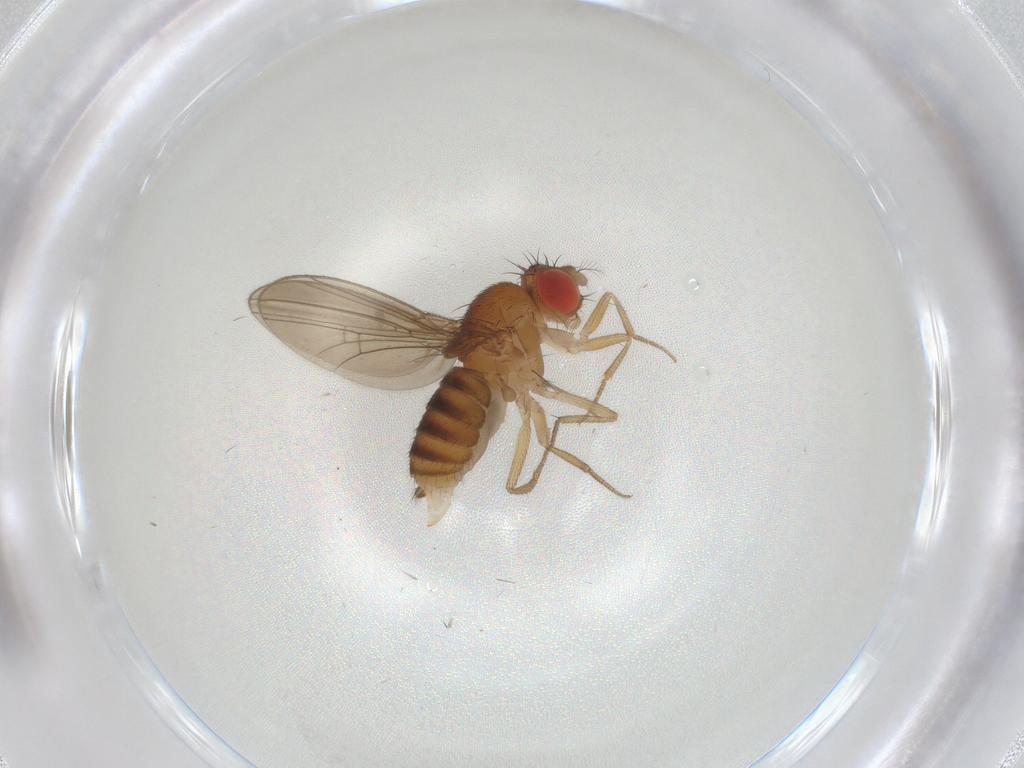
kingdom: Animalia
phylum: Arthropoda
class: Insecta
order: Diptera
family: Drosophilidae
